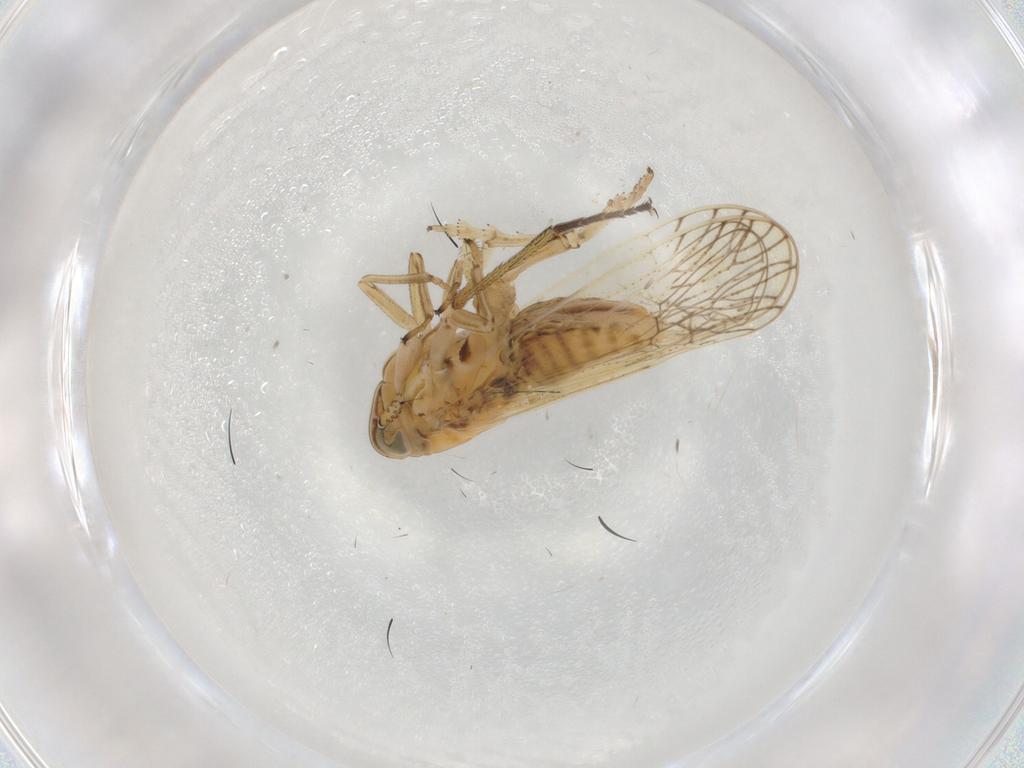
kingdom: Animalia
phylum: Arthropoda
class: Insecta
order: Hemiptera
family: Lygaeidae
